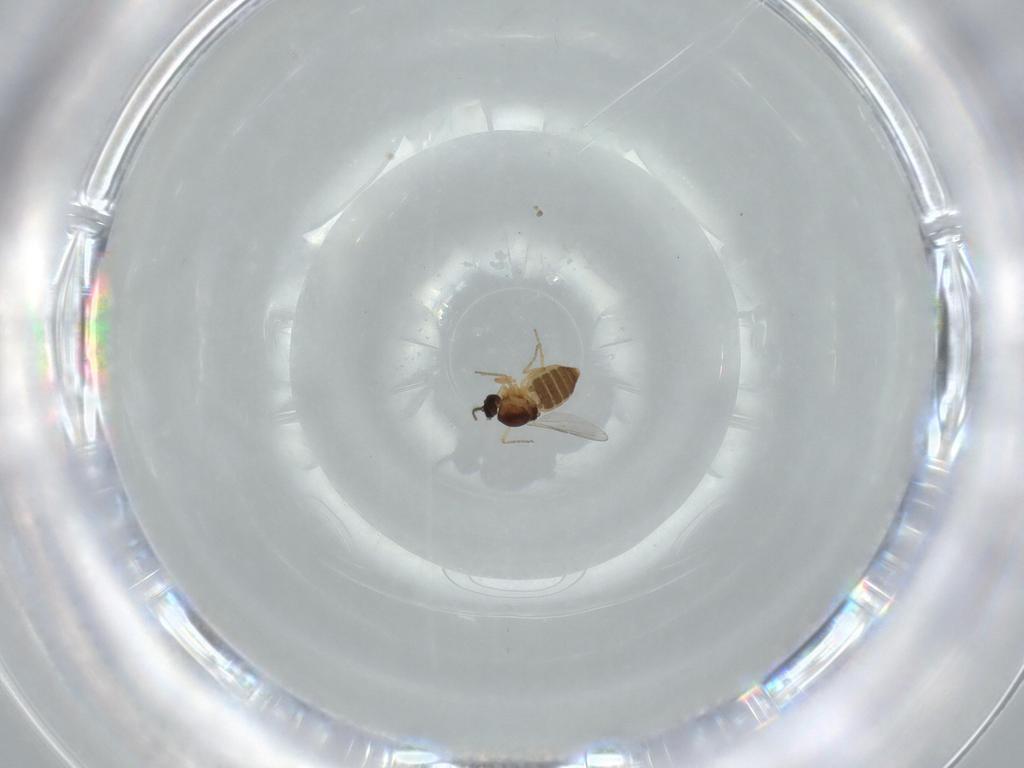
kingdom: Animalia
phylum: Arthropoda
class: Insecta
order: Diptera
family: Ceratopogonidae
